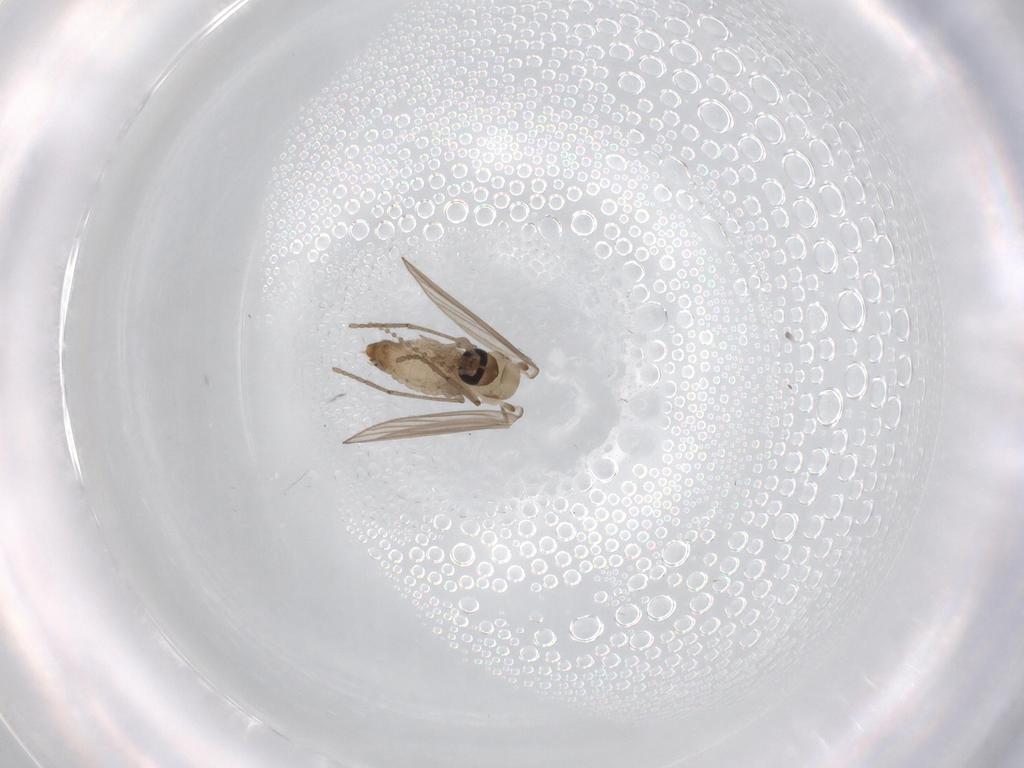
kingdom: Animalia
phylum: Arthropoda
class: Insecta
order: Diptera
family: Psychodidae
